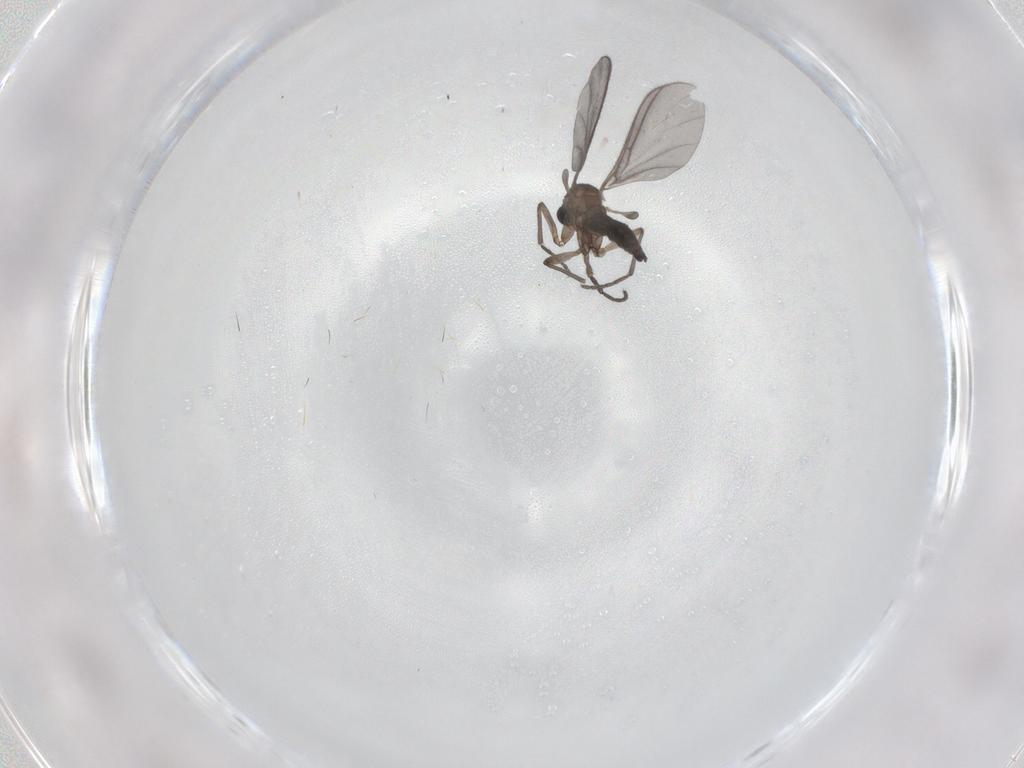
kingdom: Animalia
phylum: Arthropoda
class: Insecta
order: Diptera
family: Sciaridae
